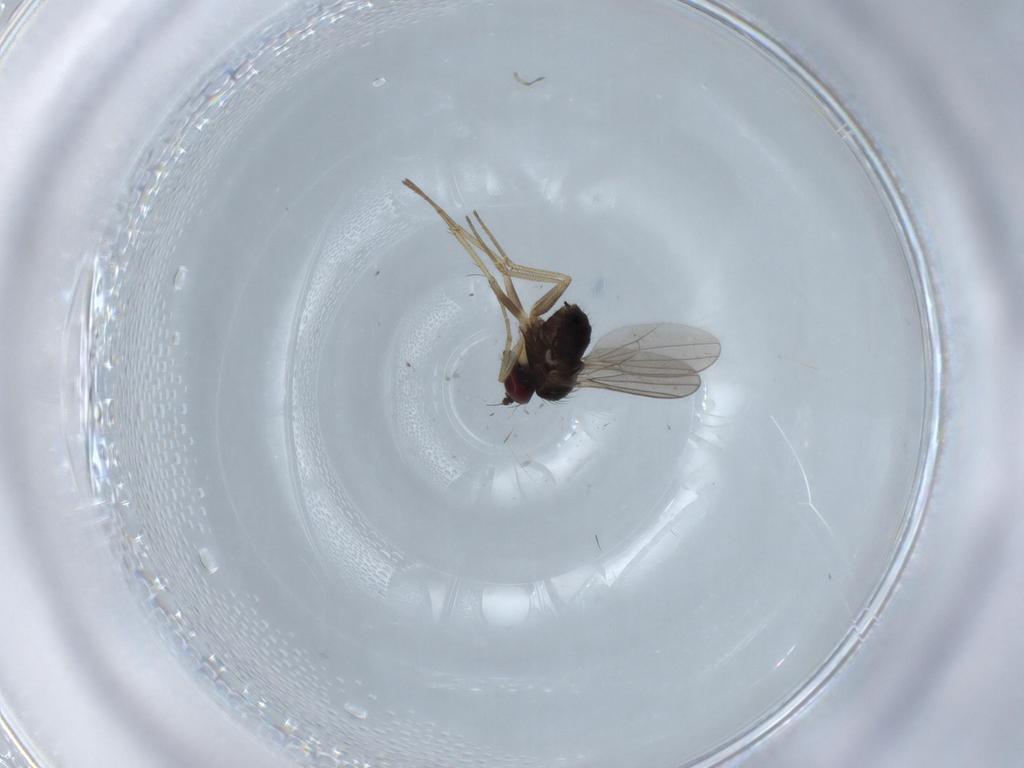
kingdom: Animalia
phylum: Arthropoda
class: Insecta
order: Diptera
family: Dolichopodidae
